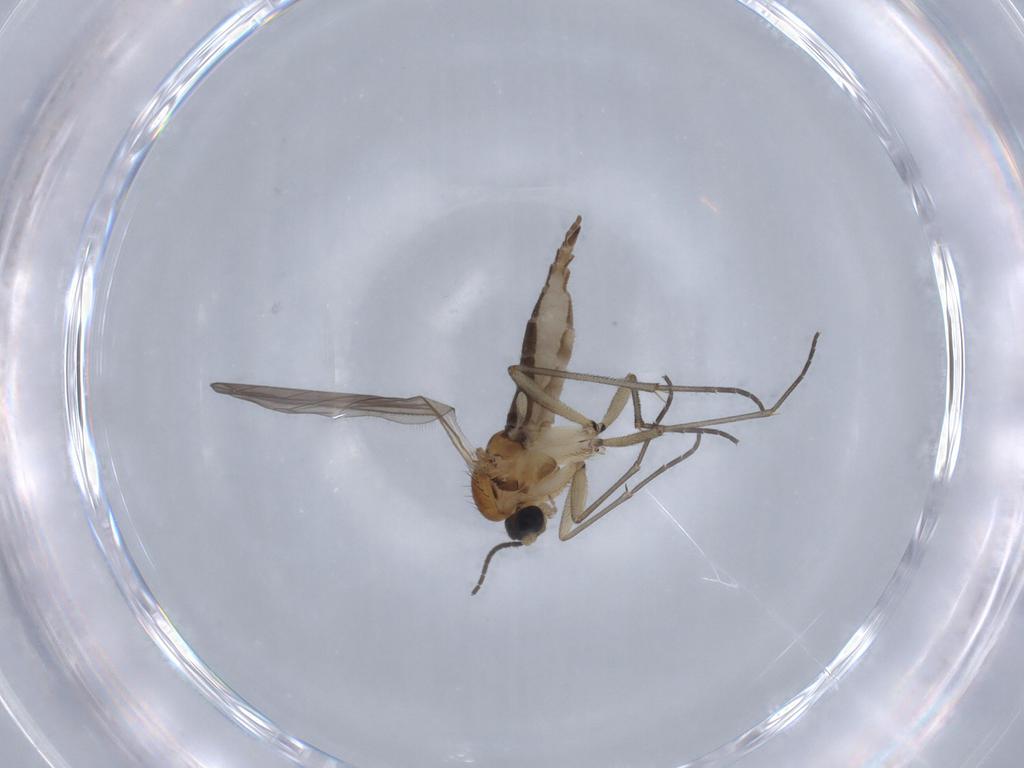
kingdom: Animalia
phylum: Arthropoda
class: Insecta
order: Diptera
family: Sciaridae
